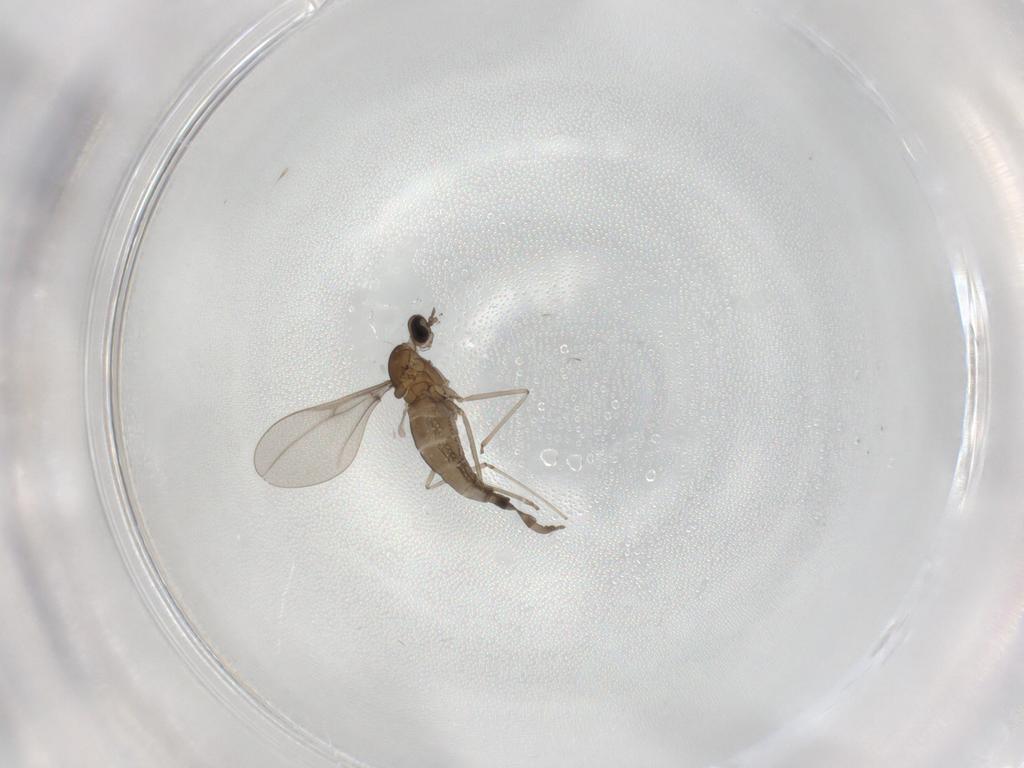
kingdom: Animalia
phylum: Arthropoda
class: Insecta
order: Diptera
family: Cecidomyiidae
